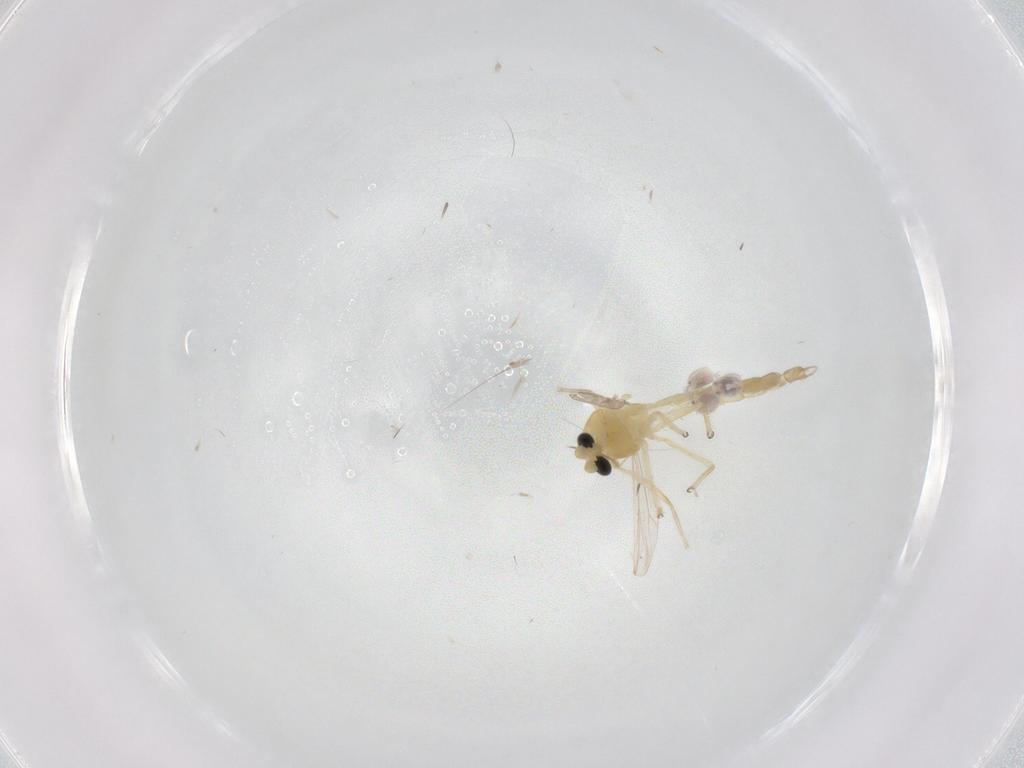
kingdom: Animalia
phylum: Arthropoda
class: Insecta
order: Diptera
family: Chironomidae
